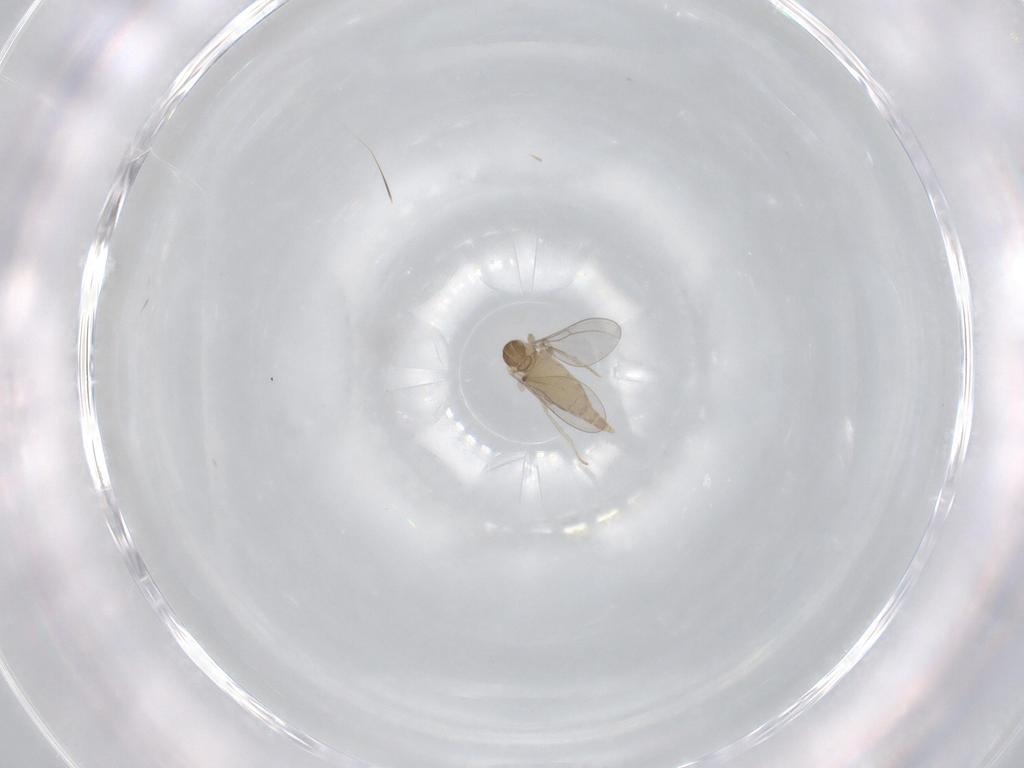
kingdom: Animalia
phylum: Arthropoda
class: Insecta
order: Diptera
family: Cecidomyiidae
